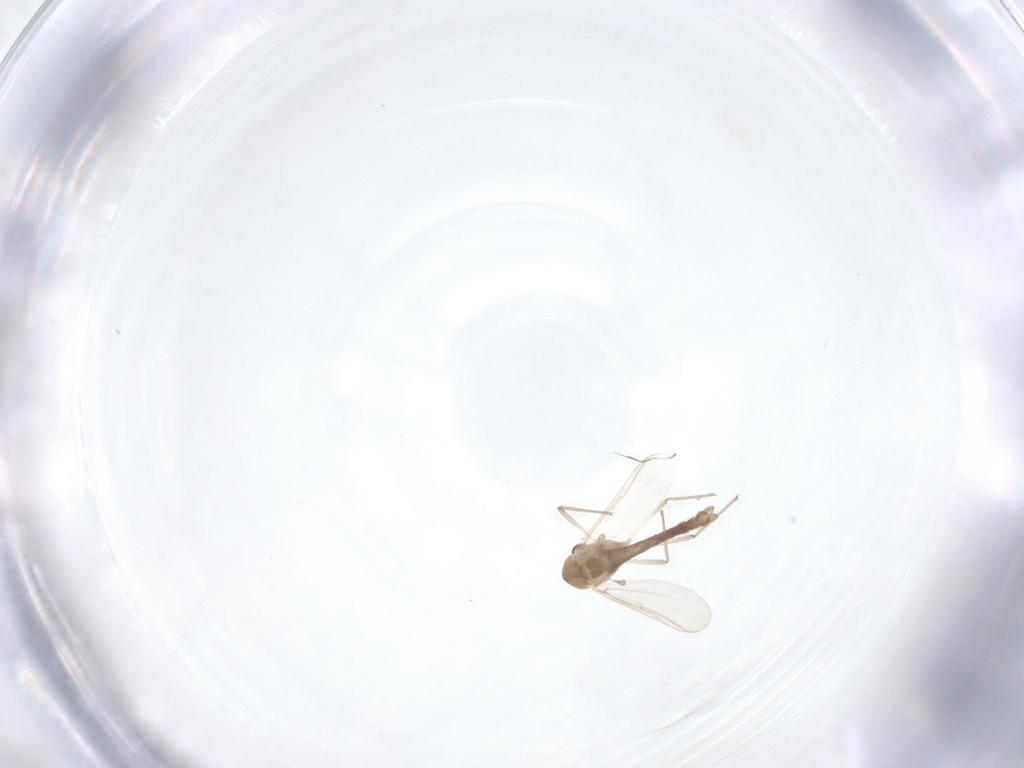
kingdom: Animalia
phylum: Arthropoda
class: Insecta
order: Diptera
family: Chironomidae
